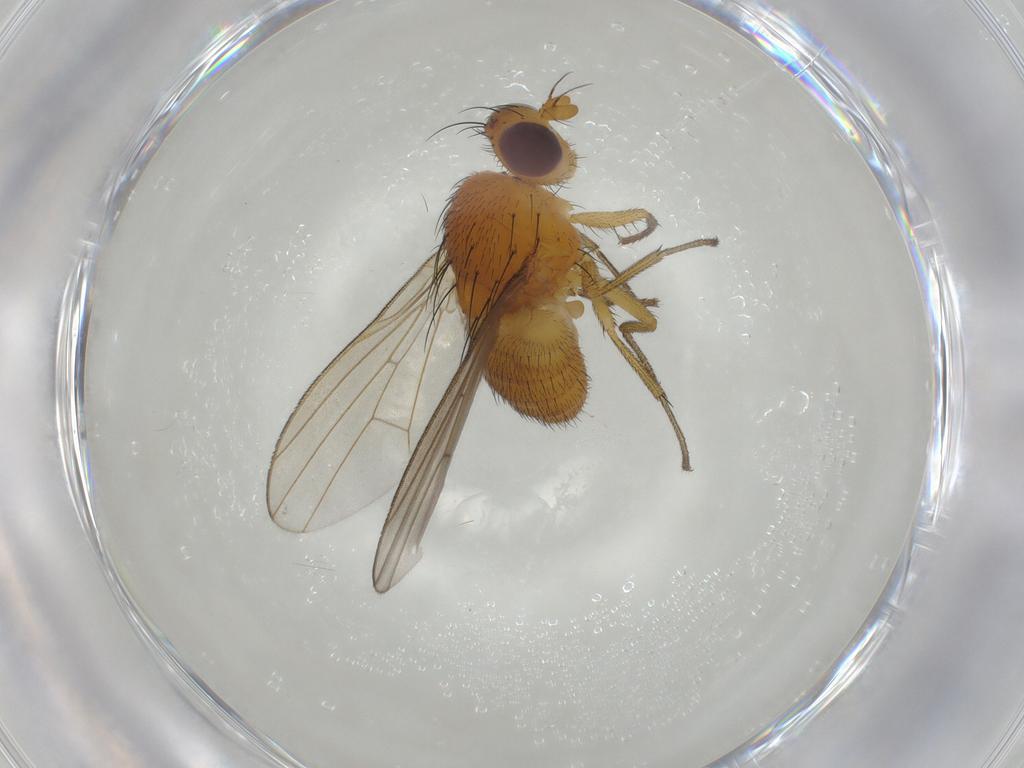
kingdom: Animalia
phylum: Arthropoda
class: Insecta
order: Diptera
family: Lauxaniidae
